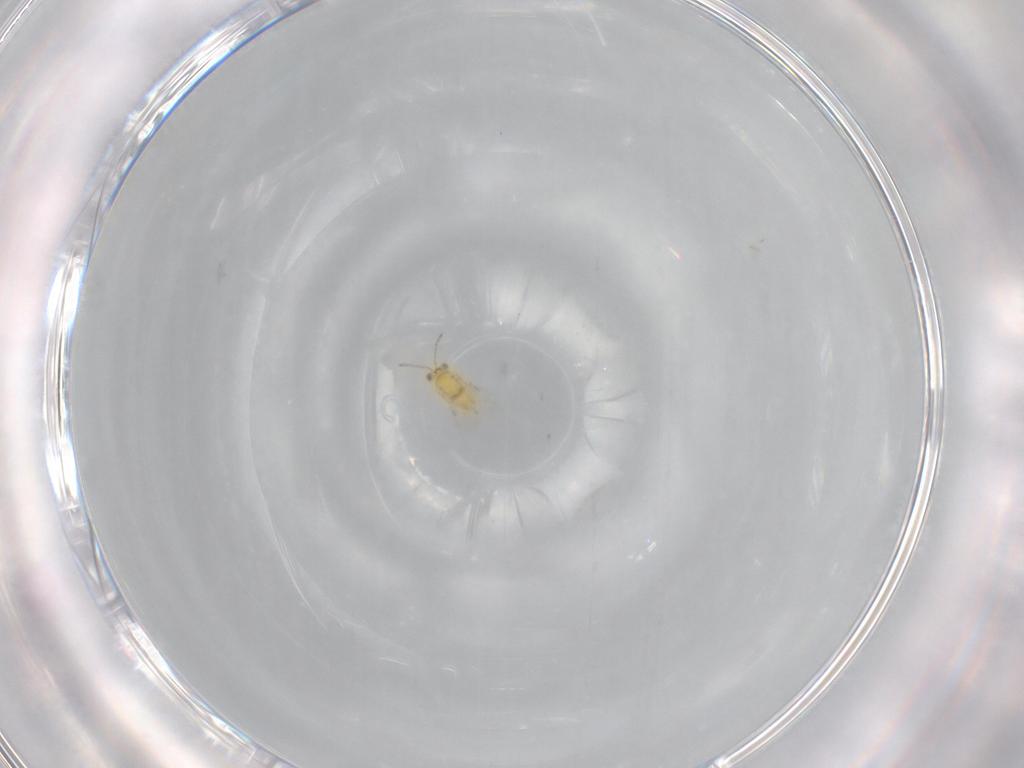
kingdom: Animalia
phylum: Arthropoda
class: Insecta
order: Hymenoptera
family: Aphelinidae
